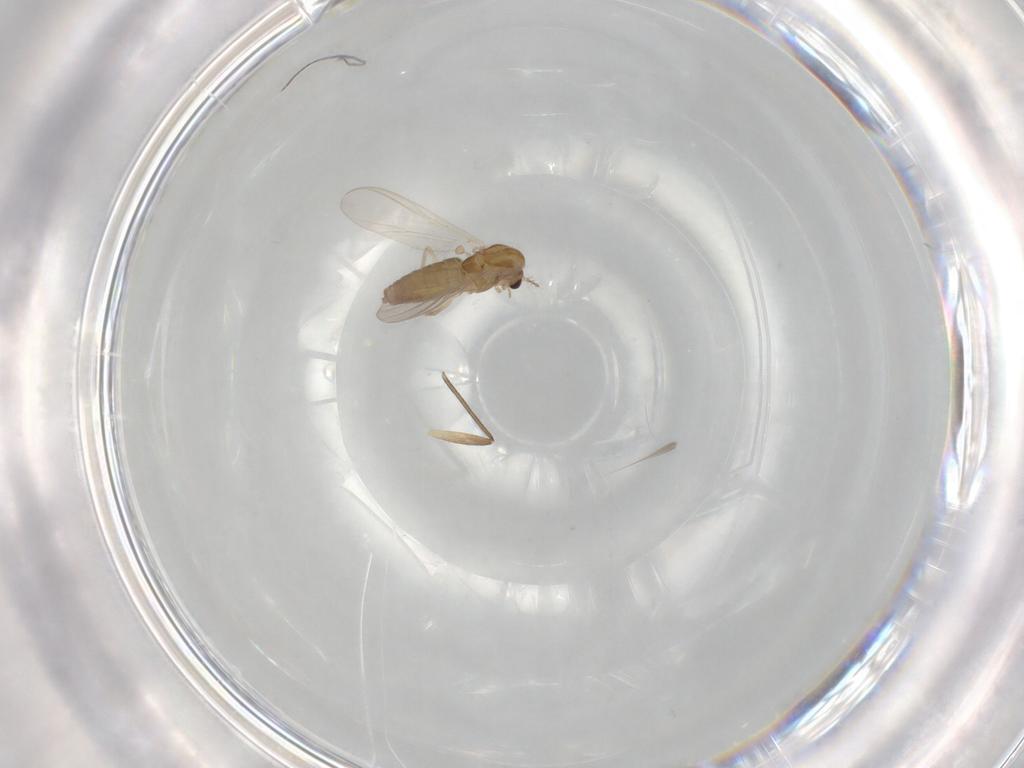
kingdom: Animalia
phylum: Arthropoda
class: Insecta
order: Diptera
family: Chironomidae
